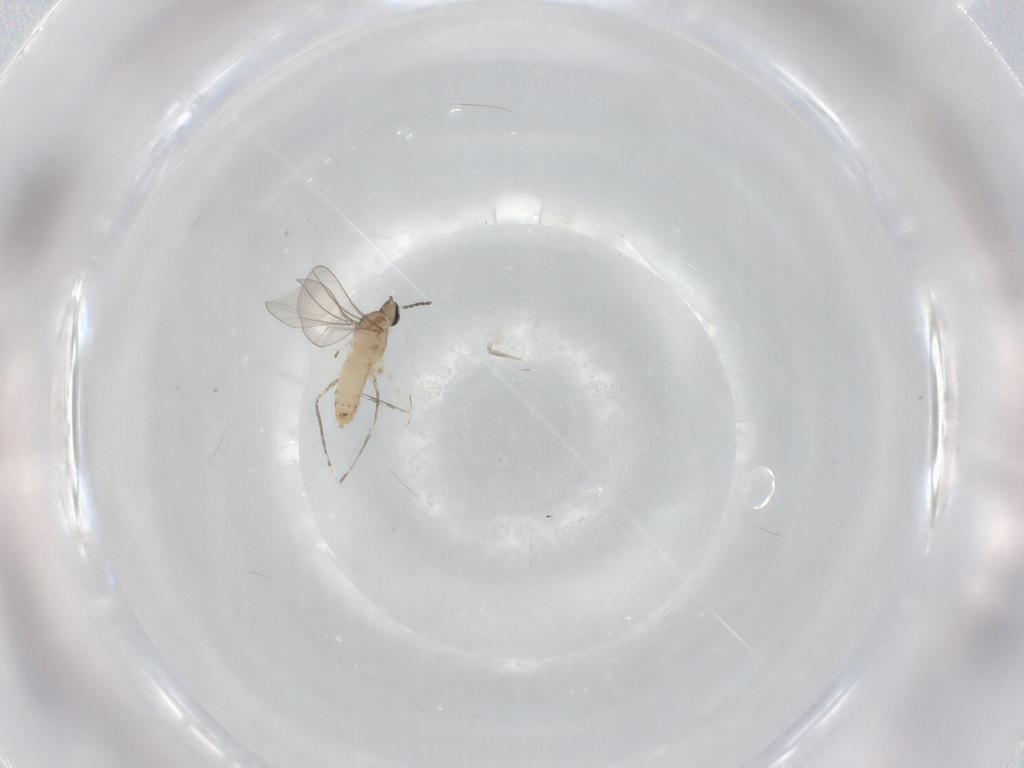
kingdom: Animalia
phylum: Arthropoda
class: Insecta
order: Diptera
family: Cecidomyiidae
